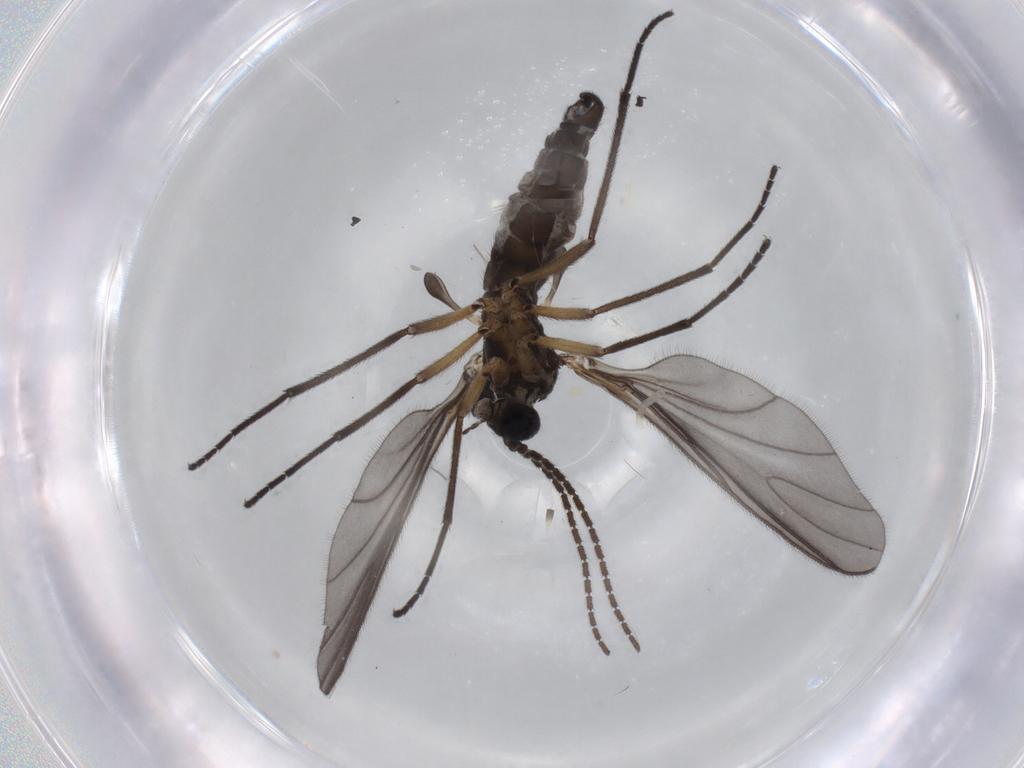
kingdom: Animalia
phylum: Arthropoda
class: Insecta
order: Diptera
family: Sciaridae
